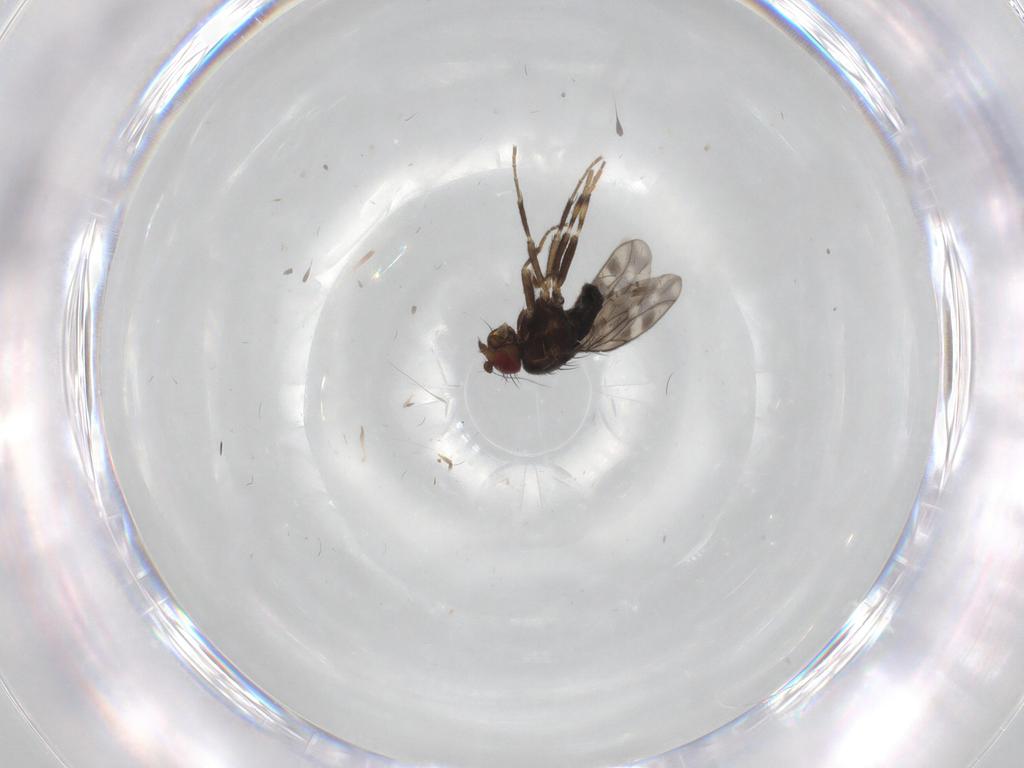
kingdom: Animalia
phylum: Arthropoda
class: Insecta
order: Diptera
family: Sphaeroceridae
